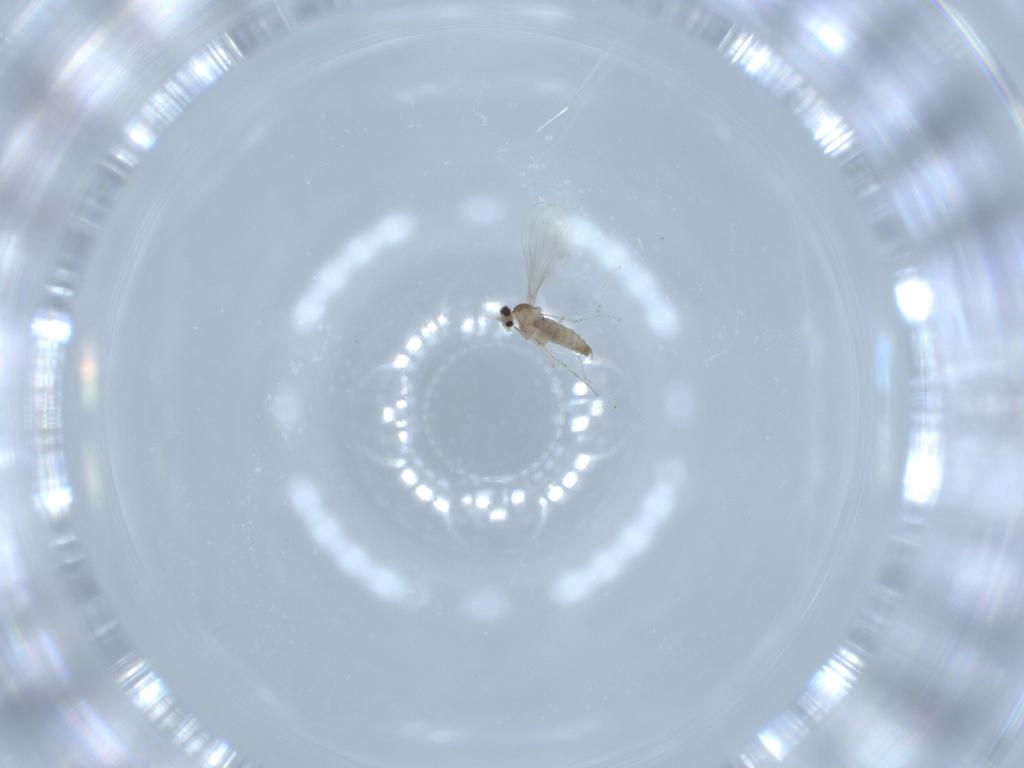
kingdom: Animalia
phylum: Arthropoda
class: Insecta
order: Diptera
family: Cecidomyiidae
